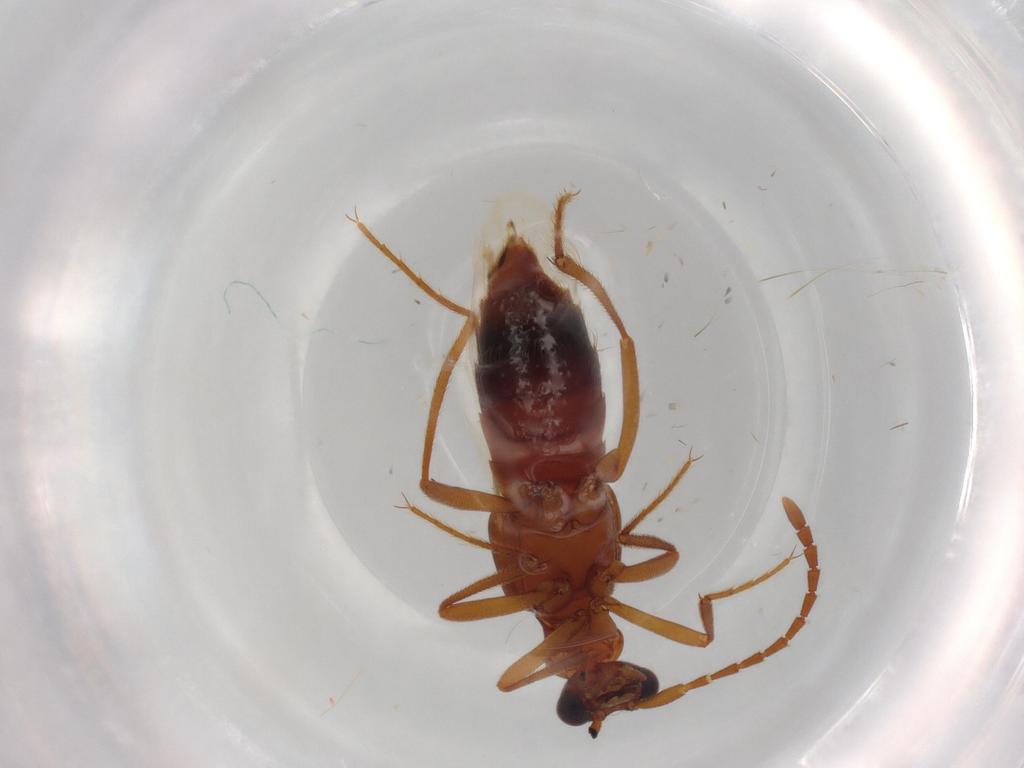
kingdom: Animalia
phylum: Arthropoda
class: Insecta
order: Coleoptera
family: Staphylinidae
